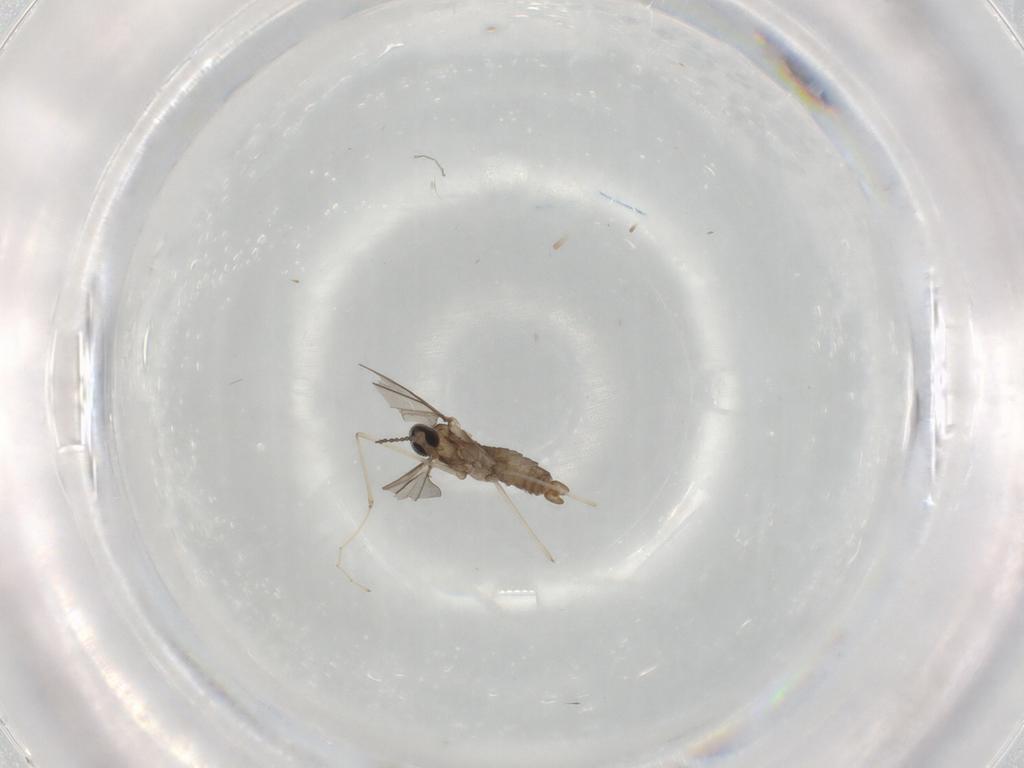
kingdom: Animalia
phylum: Arthropoda
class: Insecta
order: Diptera
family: Cecidomyiidae
